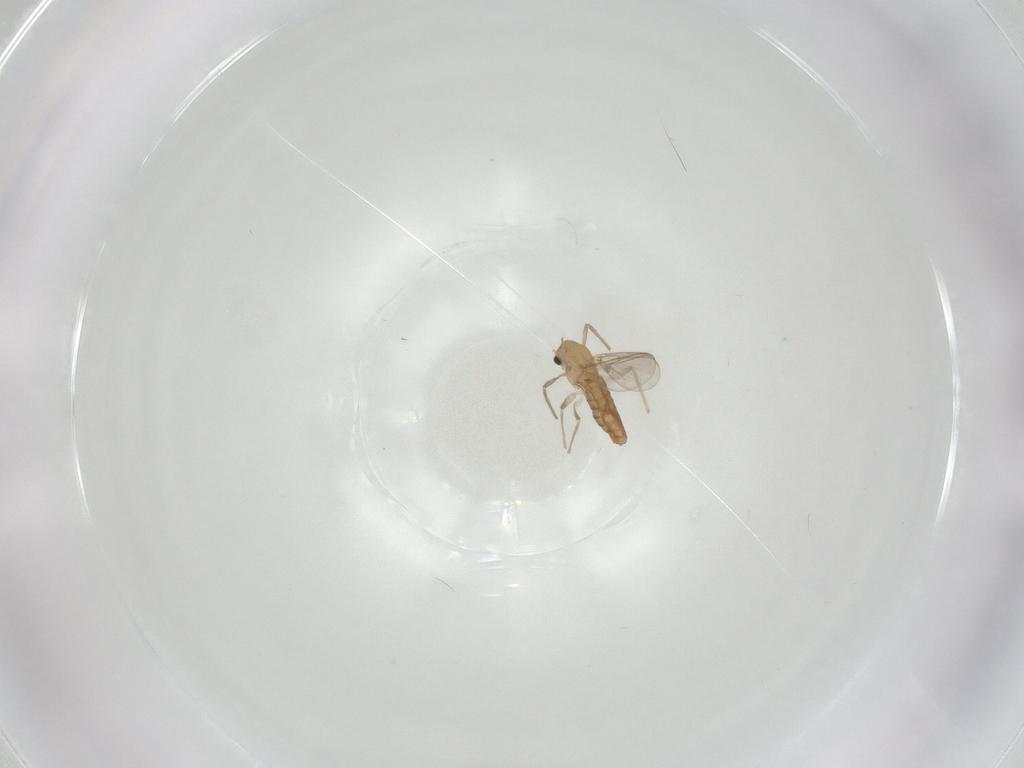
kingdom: Animalia
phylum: Arthropoda
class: Insecta
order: Diptera
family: Chironomidae
